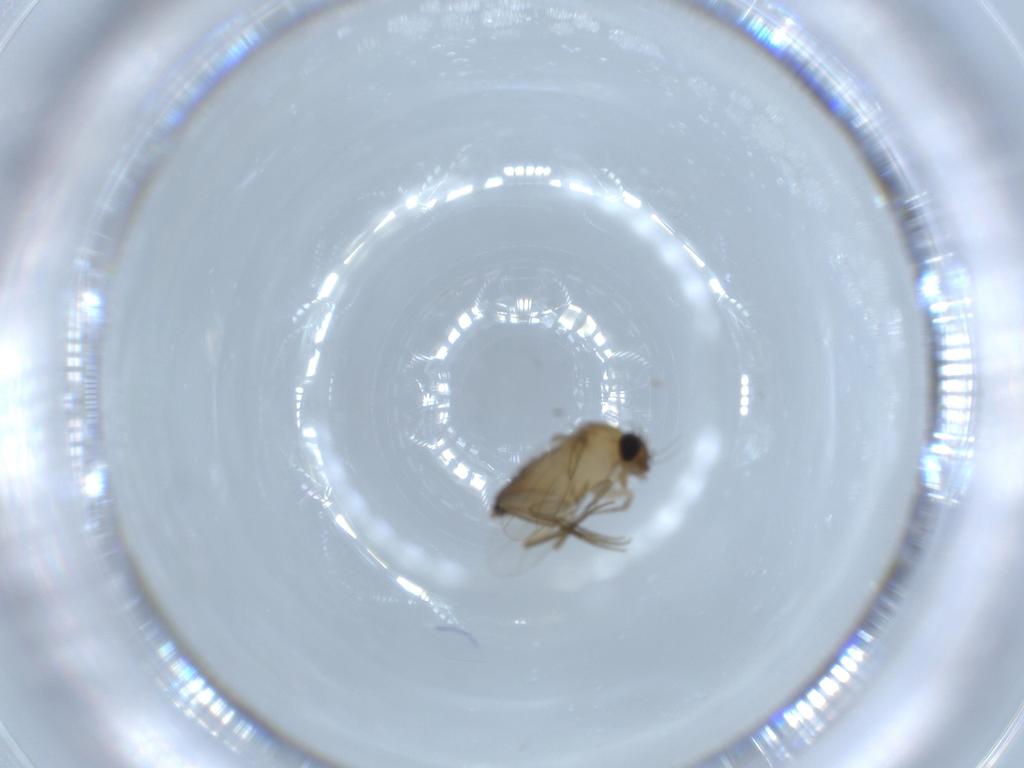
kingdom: Animalia
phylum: Arthropoda
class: Insecta
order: Diptera
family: Phoridae
